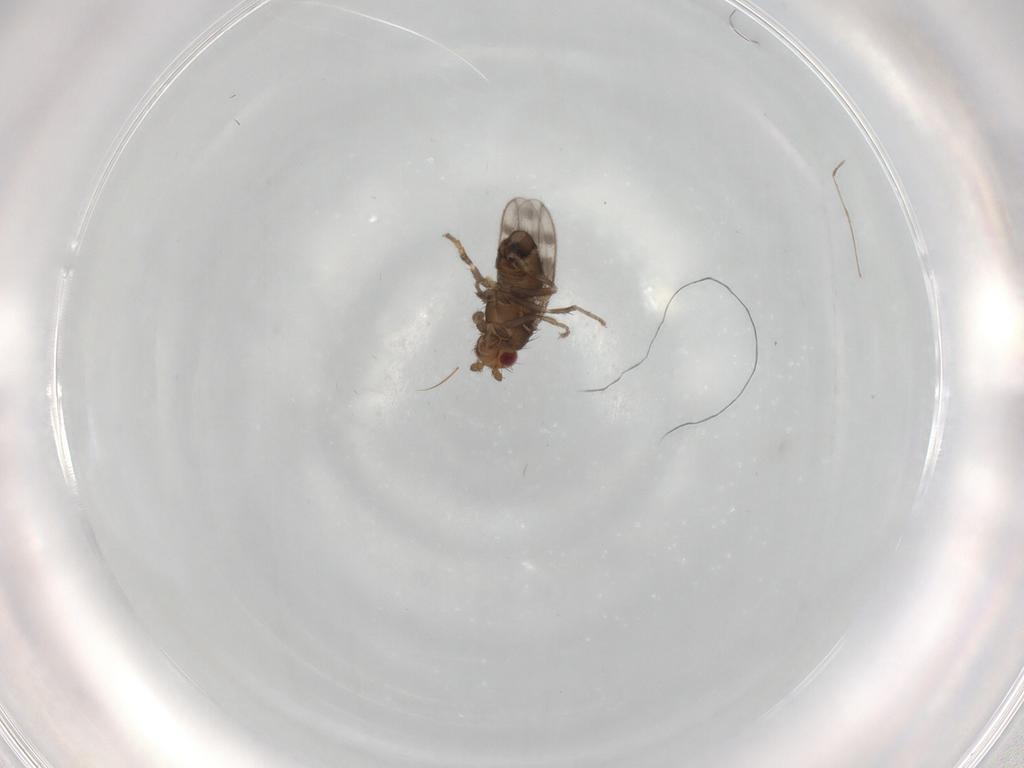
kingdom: Animalia
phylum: Arthropoda
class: Insecta
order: Diptera
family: Sphaeroceridae
